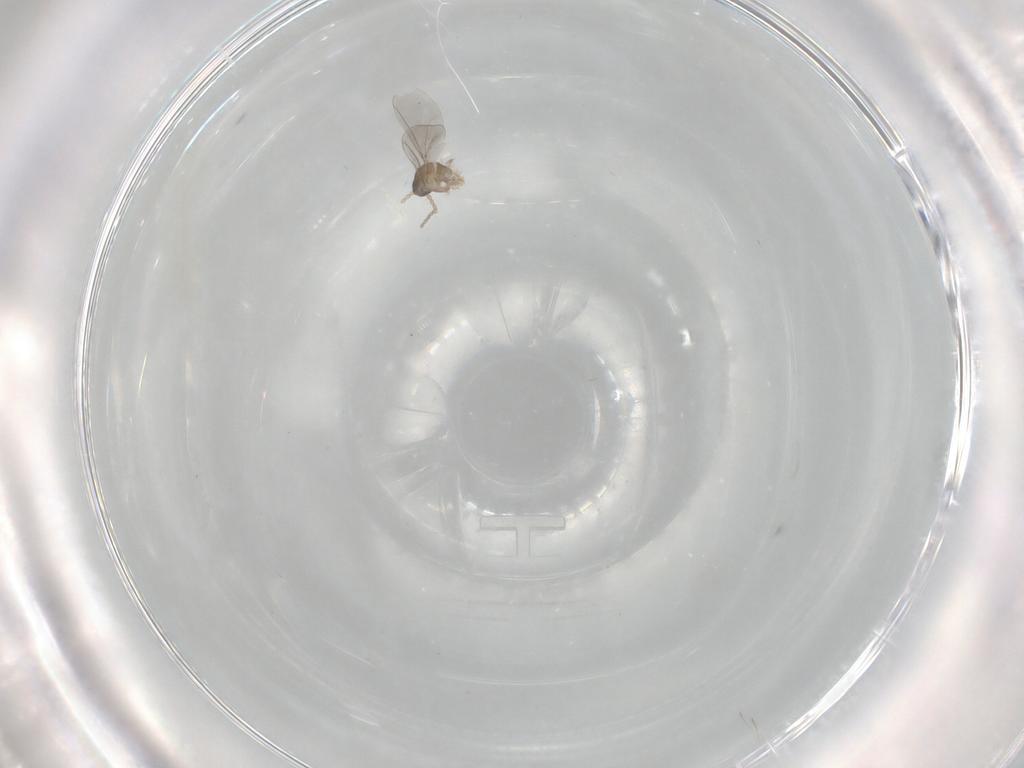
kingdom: Animalia
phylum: Arthropoda
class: Insecta
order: Diptera
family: Cecidomyiidae
